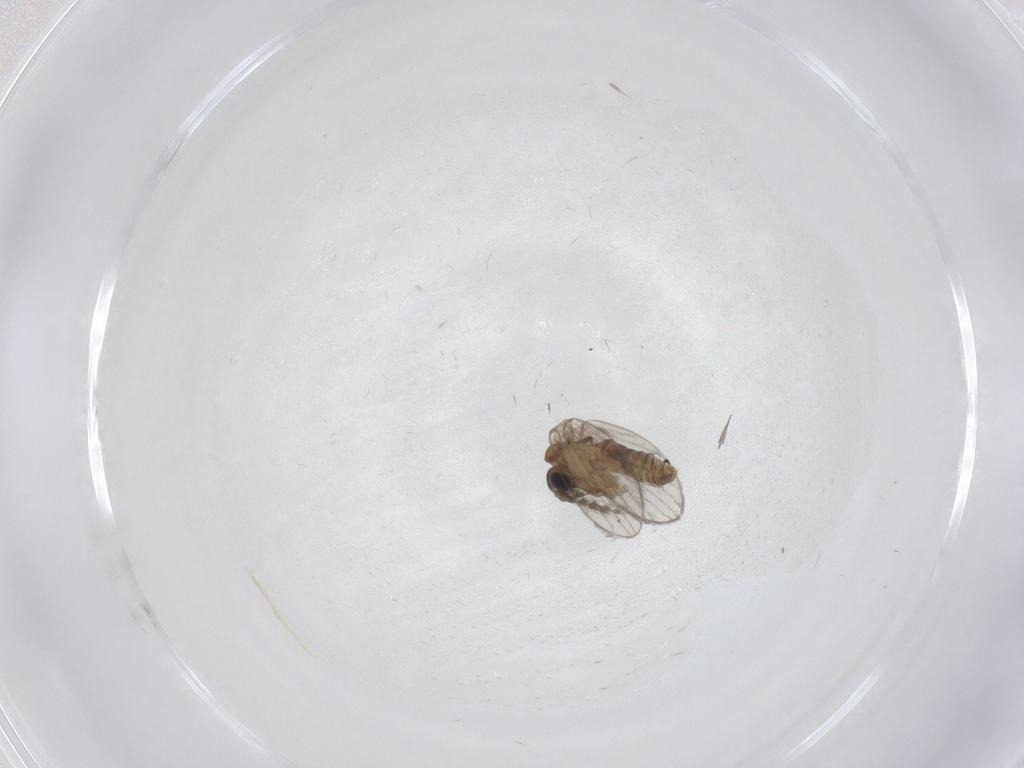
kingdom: Animalia
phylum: Arthropoda
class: Insecta
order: Diptera
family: Psychodidae
